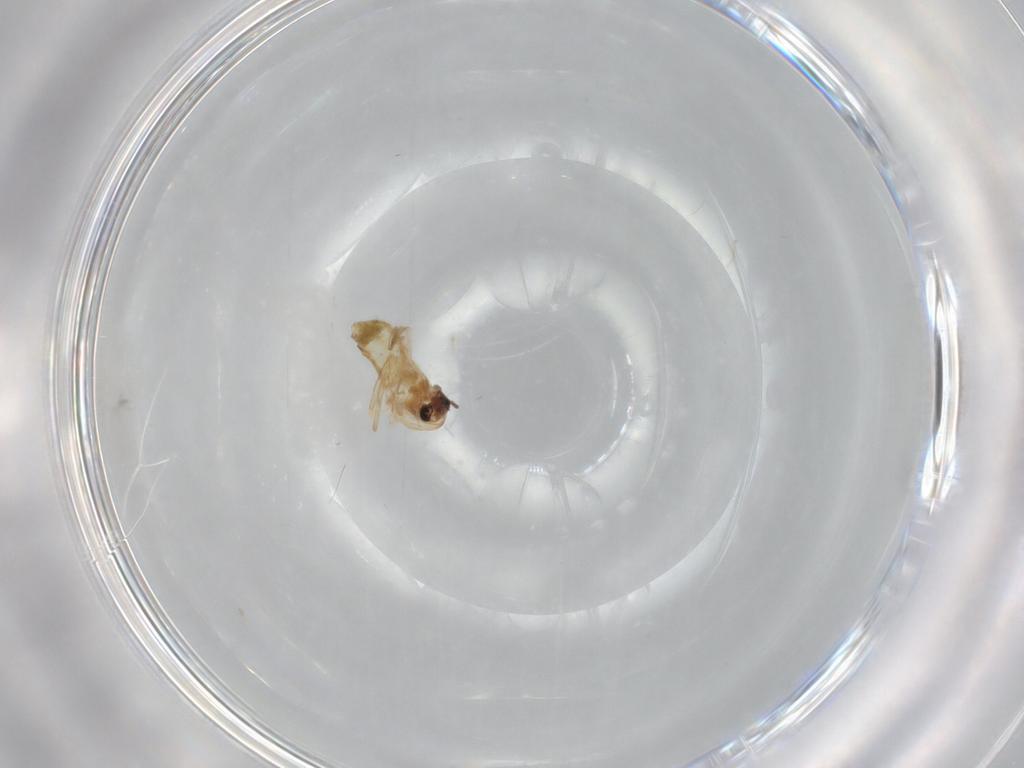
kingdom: Animalia
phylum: Arthropoda
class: Insecta
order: Diptera
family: Chironomidae
